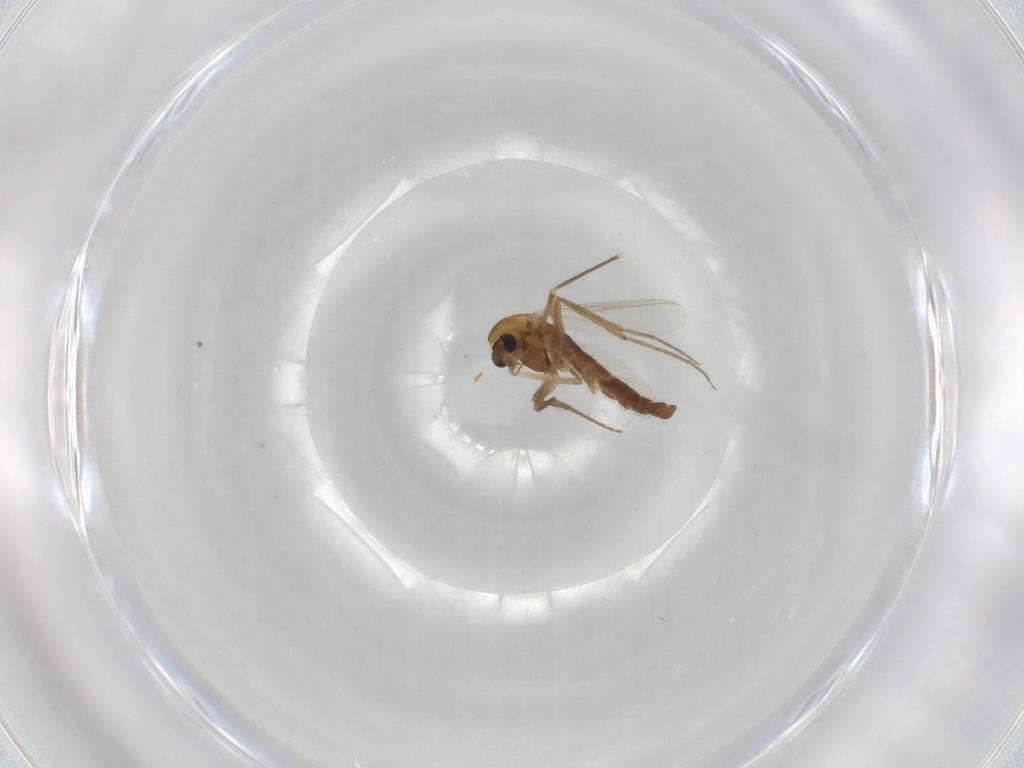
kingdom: Animalia
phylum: Arthropoda
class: Insecta
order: Diptera
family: Chironomidae
